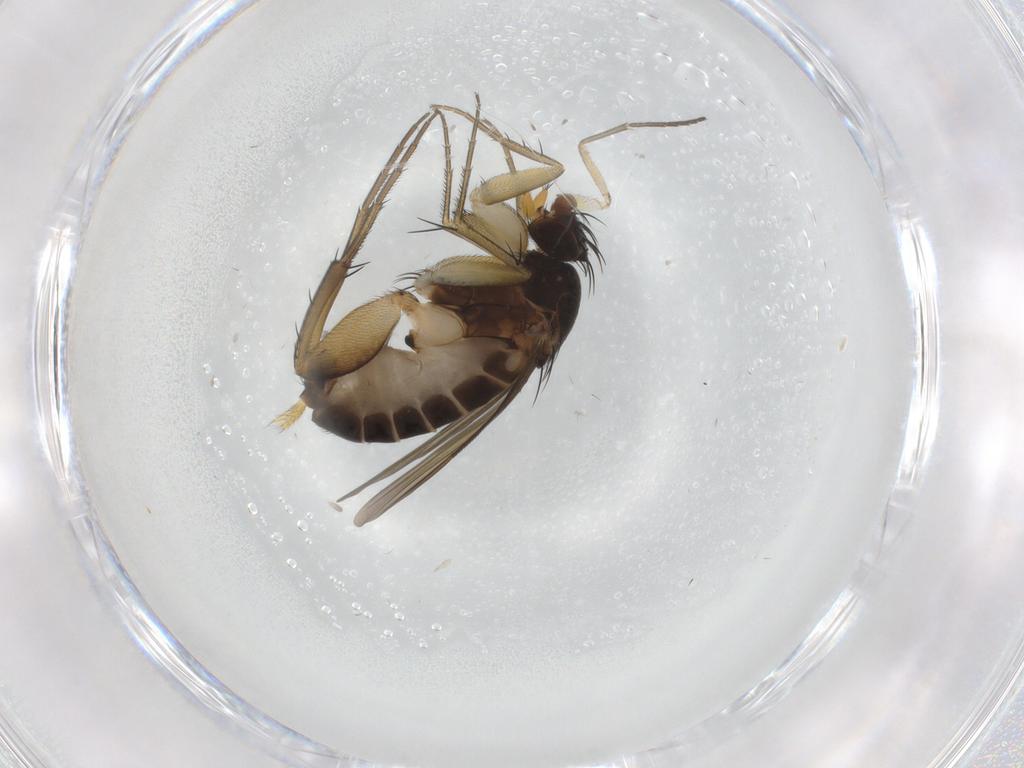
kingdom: Animalia
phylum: Arthropoda
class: Insecta
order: Diptera
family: Phoridae
